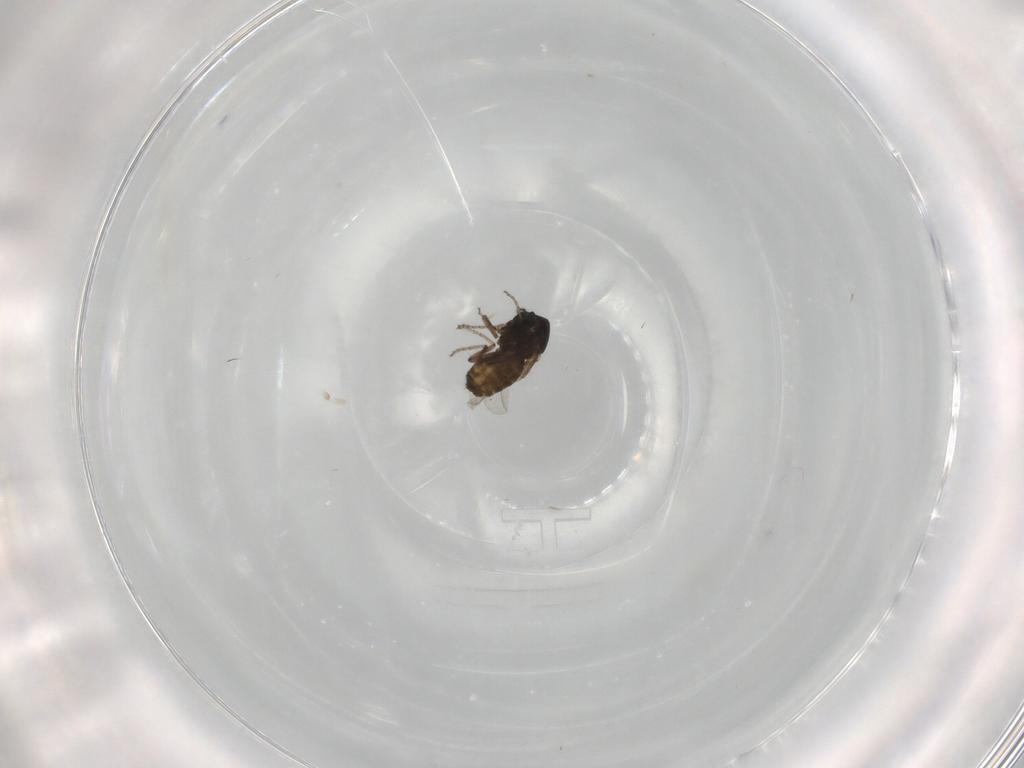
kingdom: Animalia
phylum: Arthropoda
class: Insecta
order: Diptera
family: Ceratopogonidae
